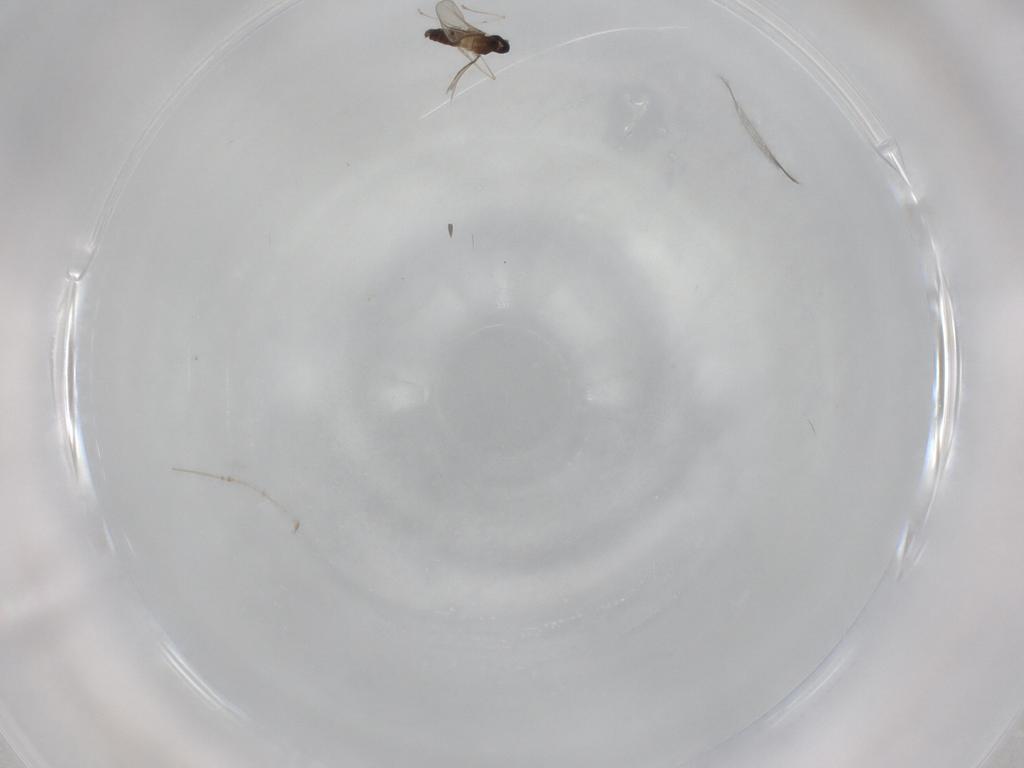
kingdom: Animalia
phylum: Arthropoda
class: Insecta
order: Diptera
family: Cecidomyiidae
